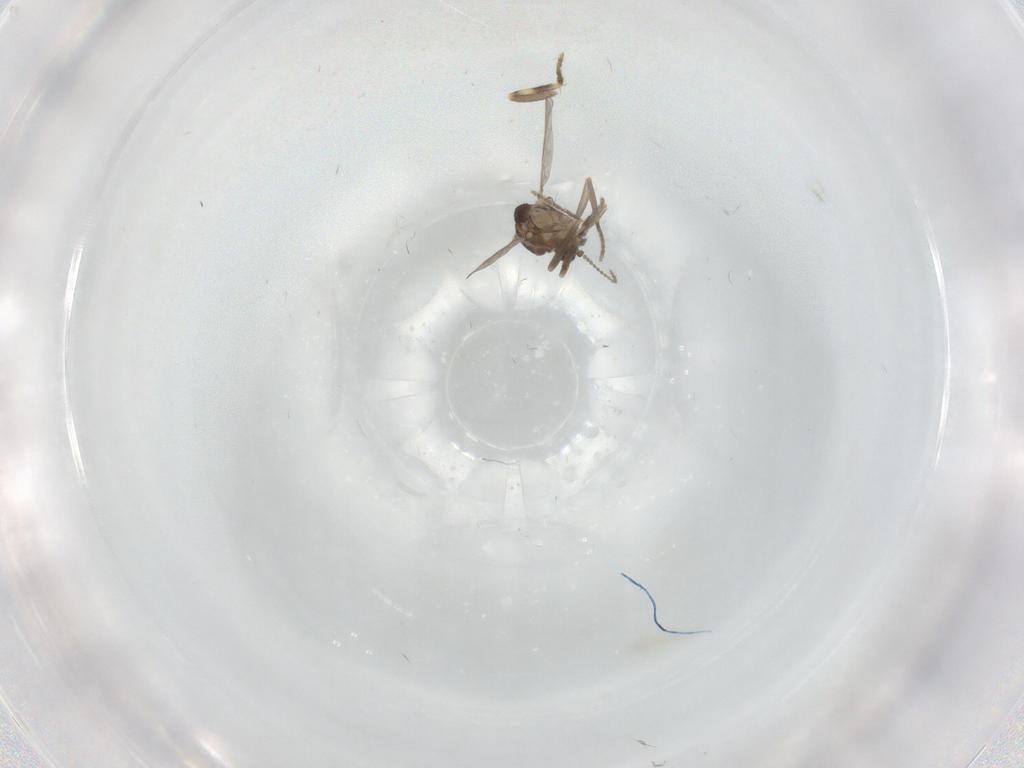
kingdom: Animalia
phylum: Arthropoda
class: Insecta
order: Diptera
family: Ceratopogonidae
